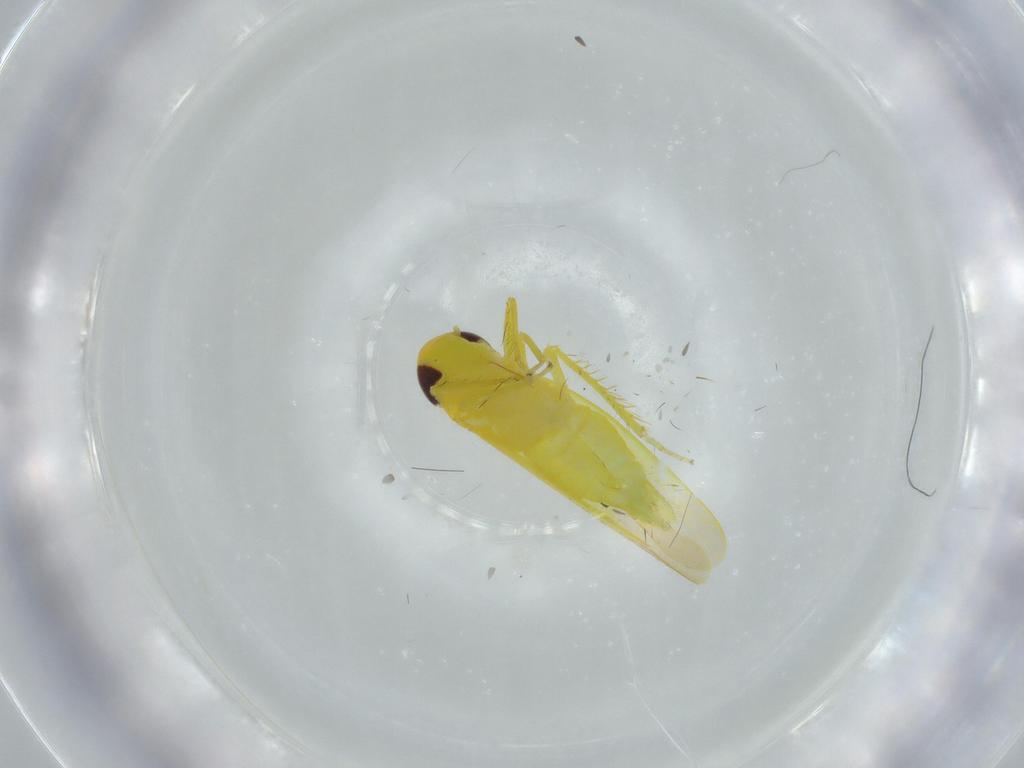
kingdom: Animalia
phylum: Arthropoda
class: Insecta
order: Hemiptera
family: Cicadellidae
